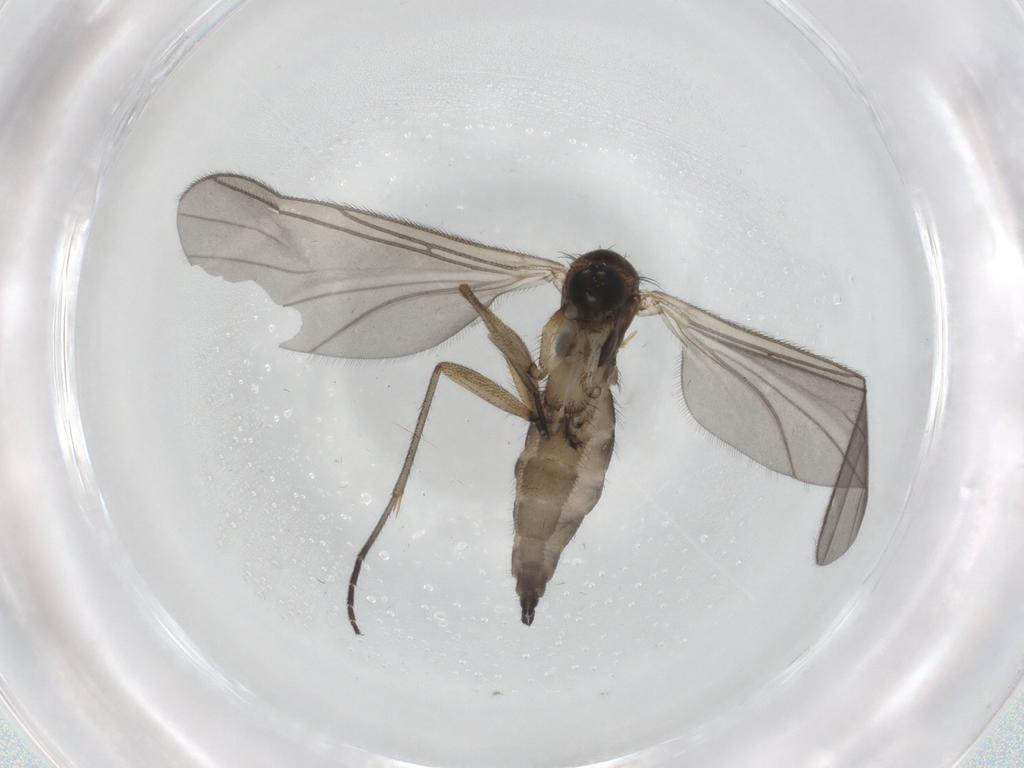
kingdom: Animalia
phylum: Arthropoda
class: Insecta
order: Diptera
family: Sciaridae
